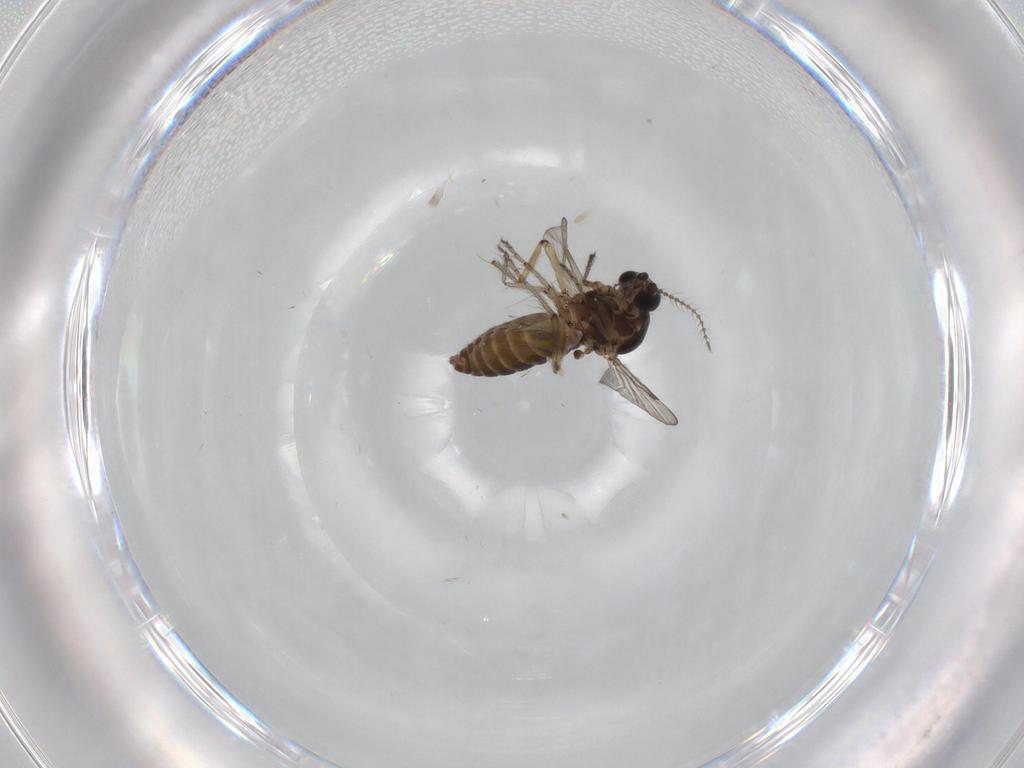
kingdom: Animalia
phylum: Arthropoda
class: Insecta
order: Diptera
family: Ceratopogonidae
